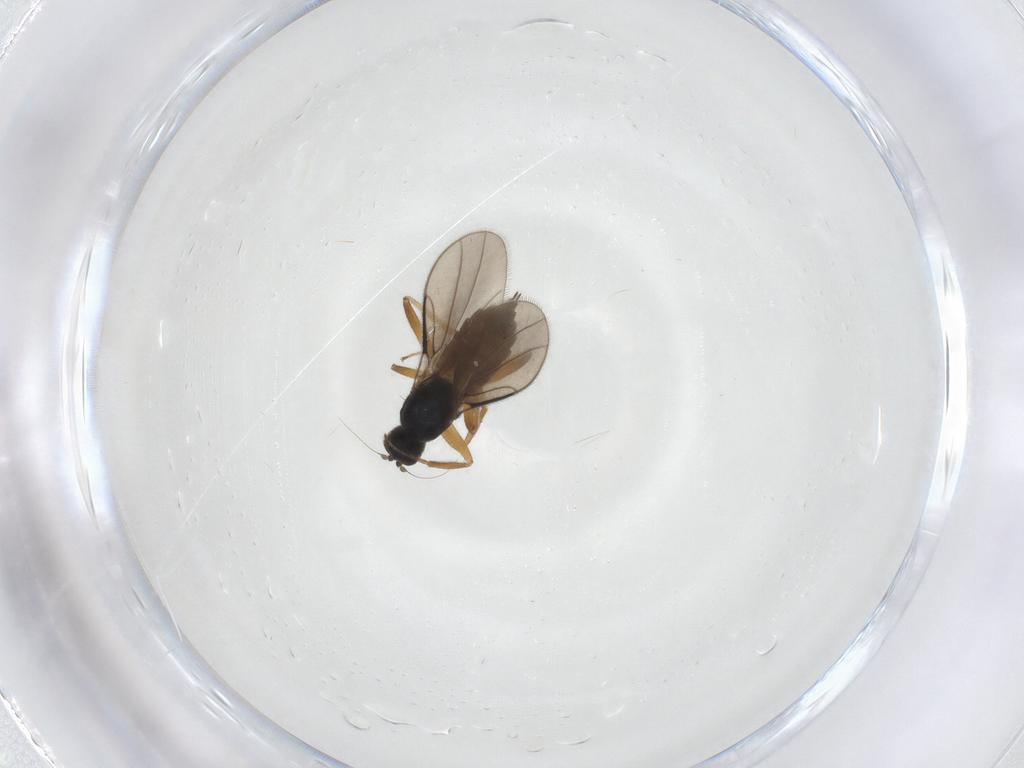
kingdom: Animalia
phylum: Arthropoda
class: Insecta
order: Diptera
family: Hybotidae
